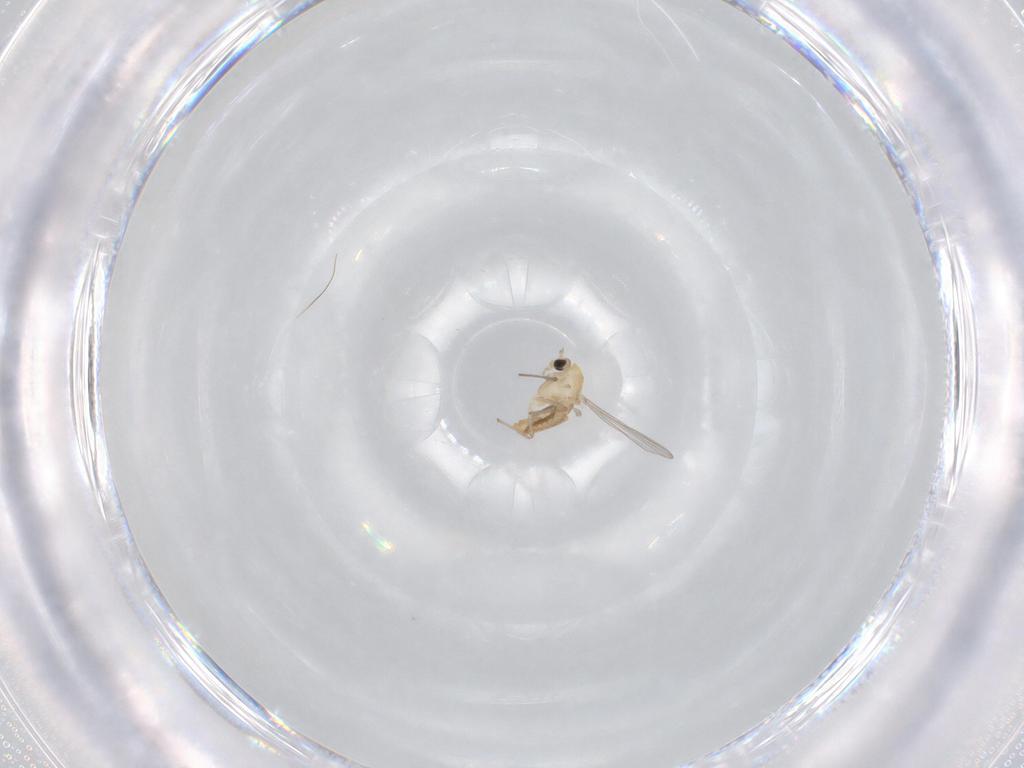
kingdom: Animalia
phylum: Arthropoda
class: Insecta
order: Diptera
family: Chironomidae
